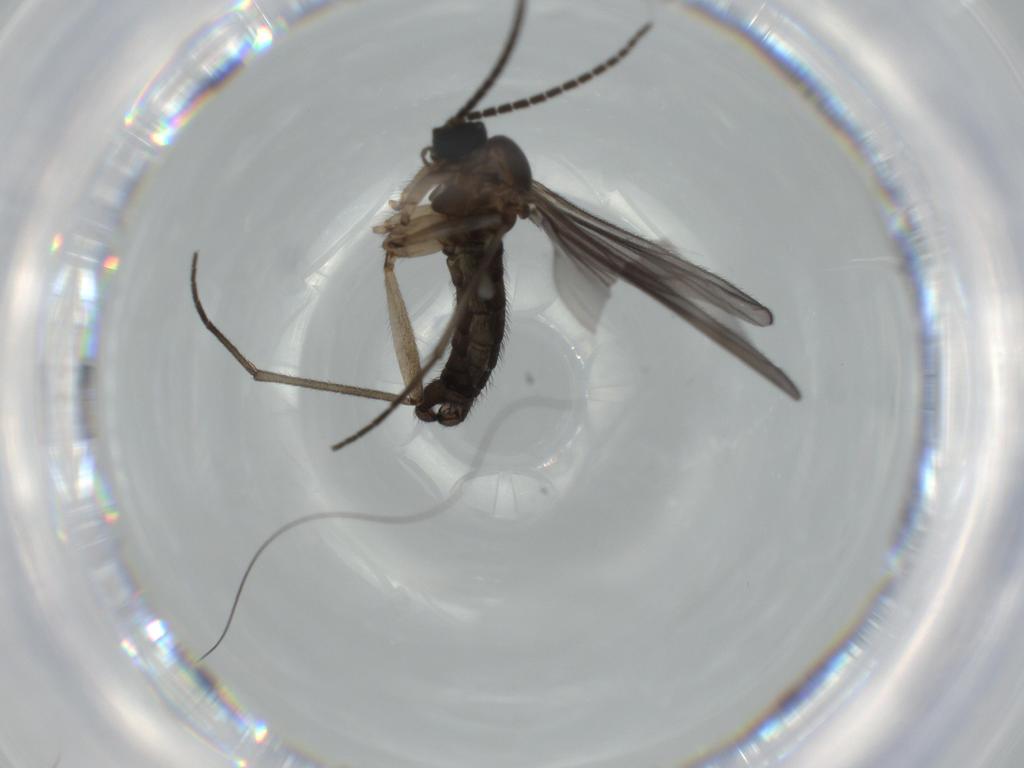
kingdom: Animalia
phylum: Arthropoda
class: Insecta
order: Diptera
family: Sciaridae
